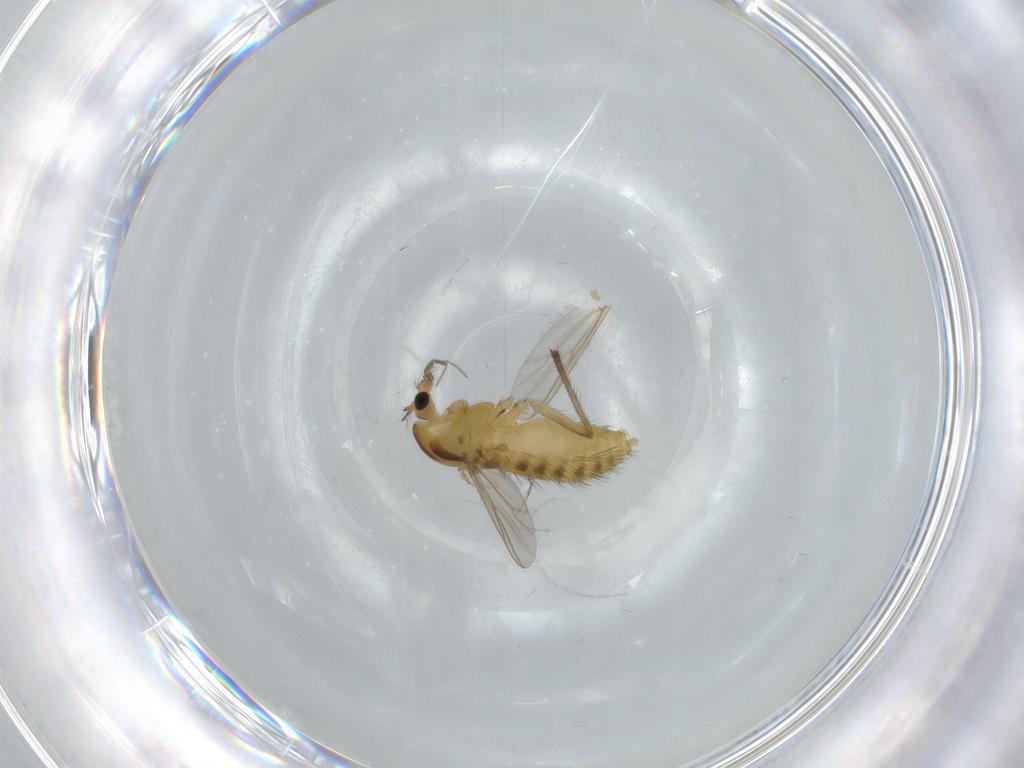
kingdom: Animalia
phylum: Arthropoda
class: Insecta
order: Diptera
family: Chironomidae
